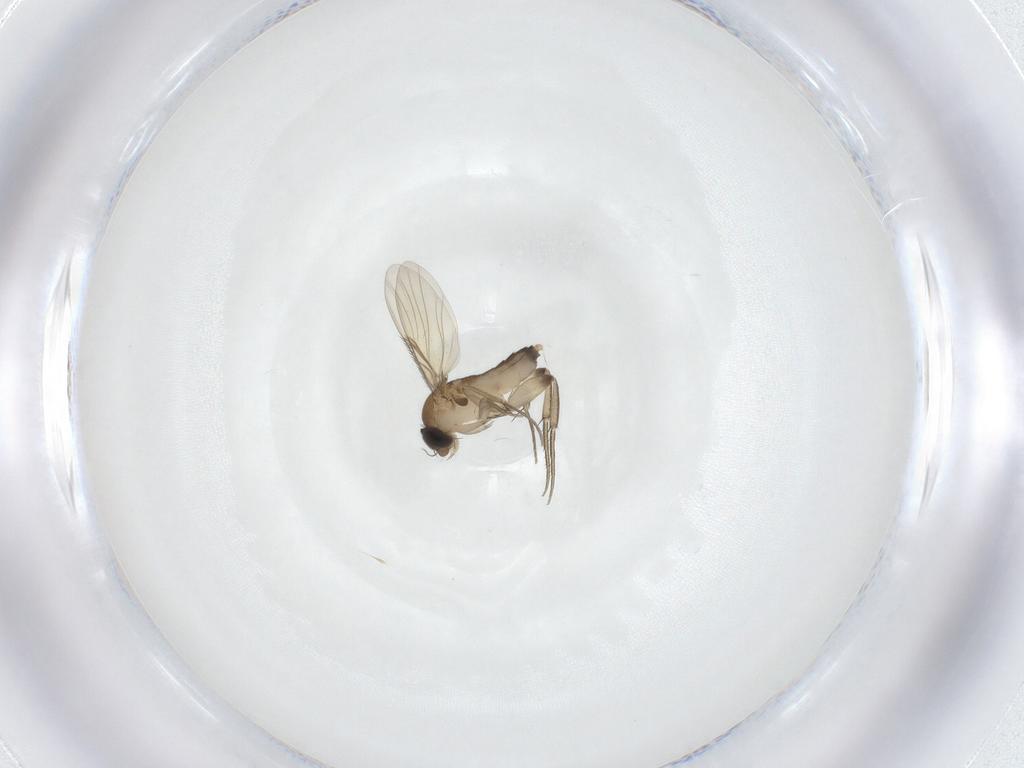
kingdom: Animalia
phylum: Arthropoda
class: Insecta
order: Diptera
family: Phoridae
